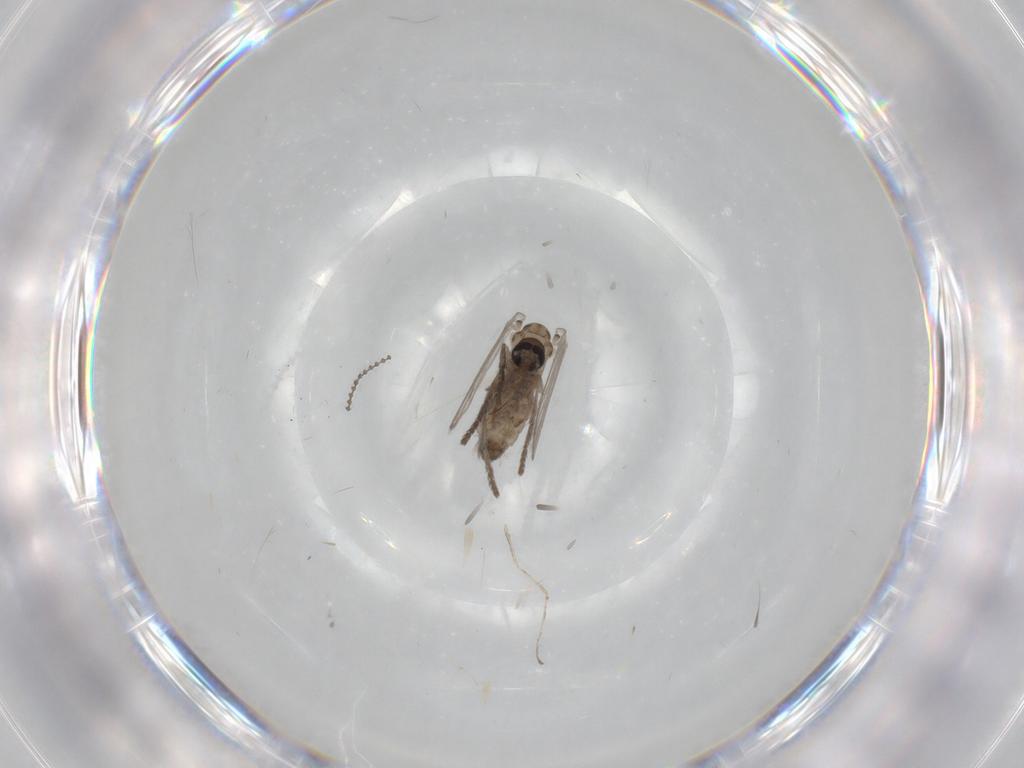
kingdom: Animalia
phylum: Arthropoda
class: Insecta
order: Diptera
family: Psychodidae
